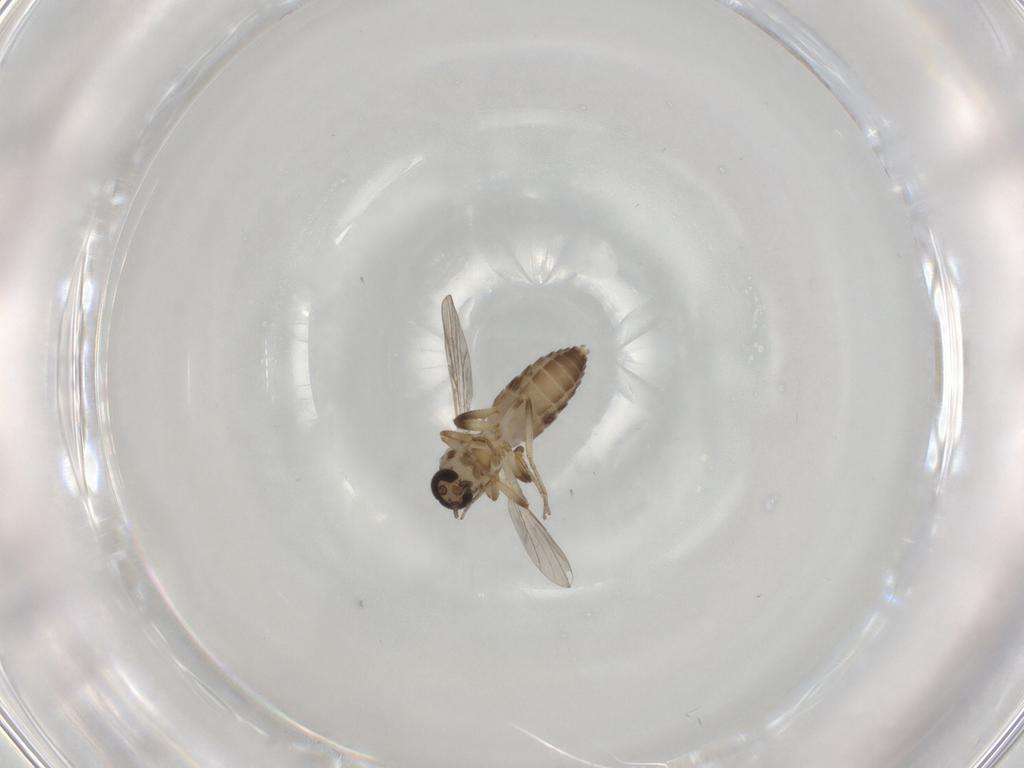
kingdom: Animalia
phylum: Arthropoda
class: Insecta
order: Diptera
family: Ceratopogonidae
